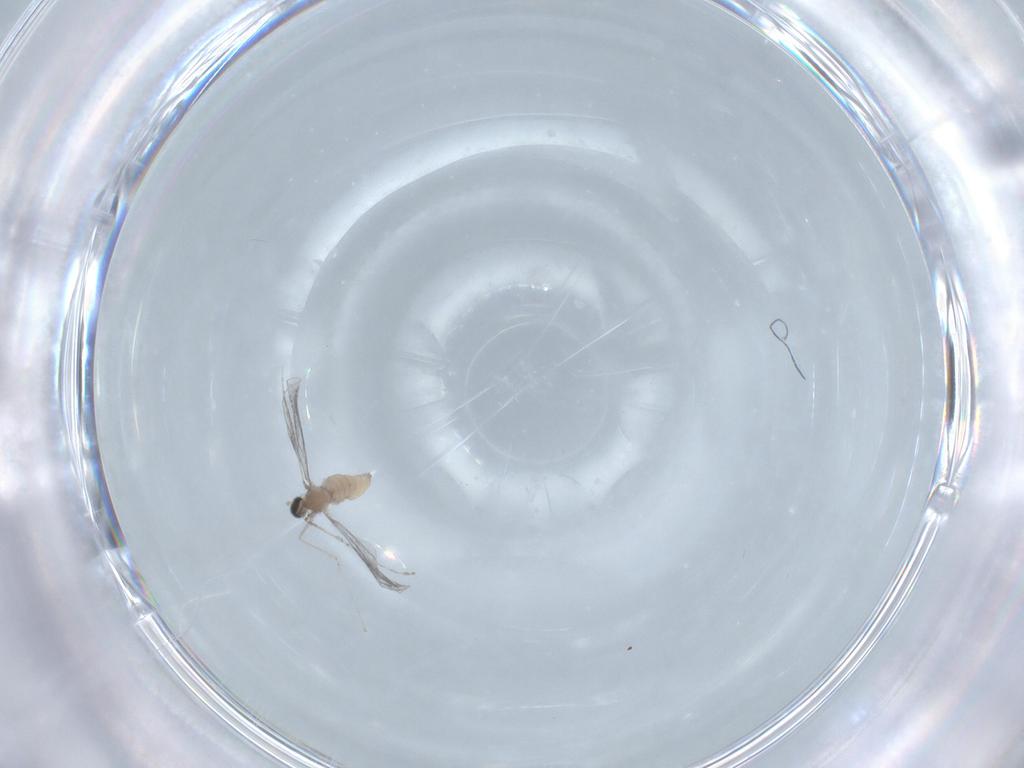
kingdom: Animalia
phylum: Arthropoda
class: Insecta
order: Diptera
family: Cecidomyiidae
